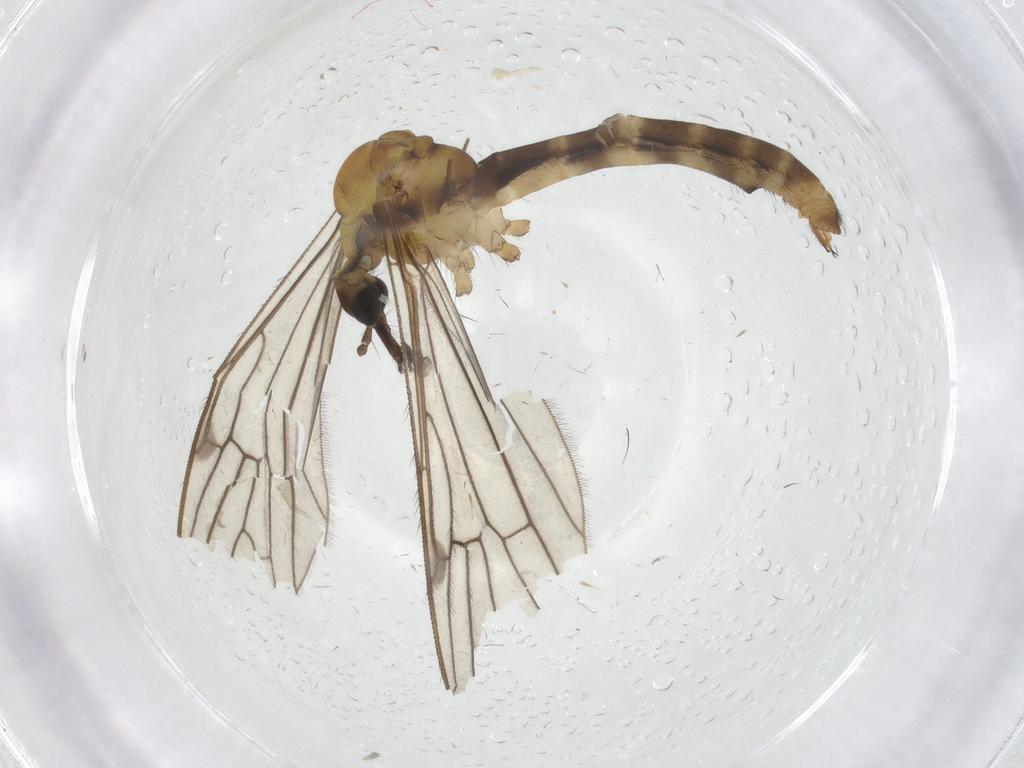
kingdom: Animalia
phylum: Arthropoda
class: Insecta
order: Diptera
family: Limoniidae
